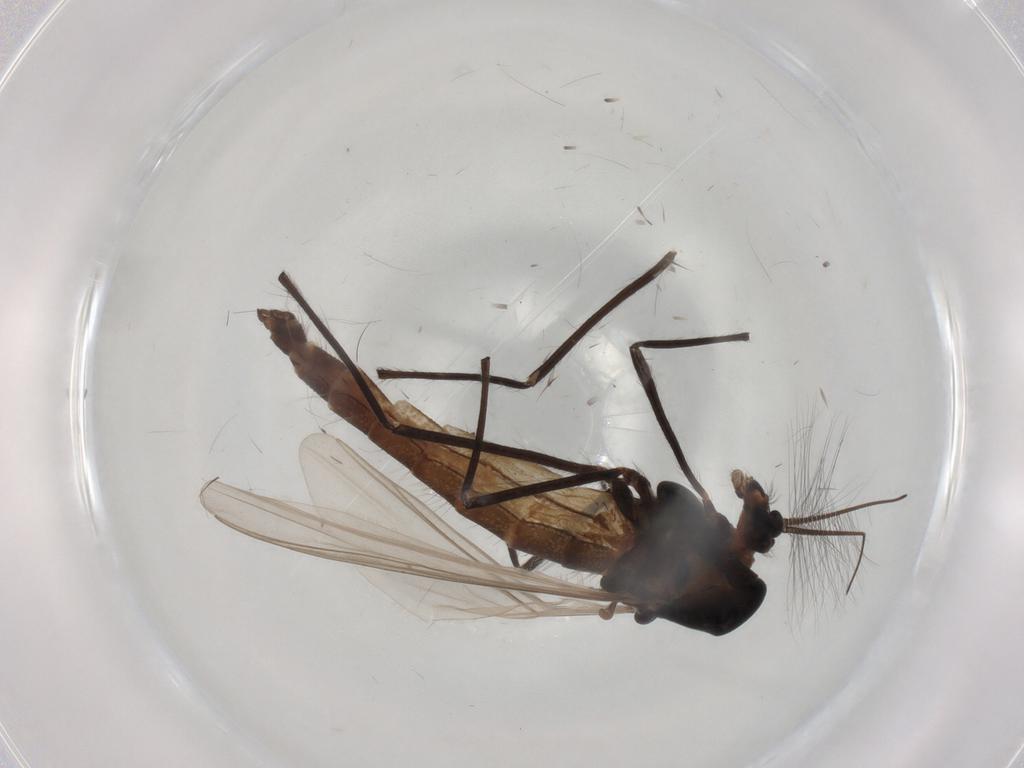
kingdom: Animalia
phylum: Arthropoda
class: Insecta
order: Diptera
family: Chironomidae
